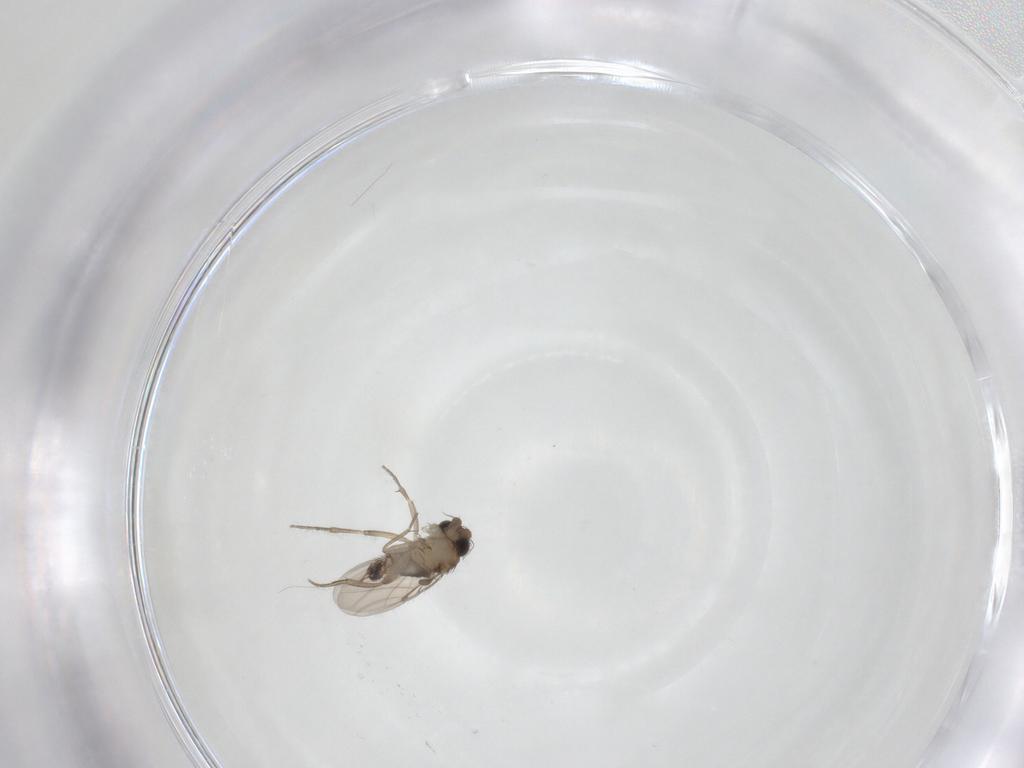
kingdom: Animalia
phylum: Arthropoda
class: Insecta
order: Diptera
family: Phoridae
